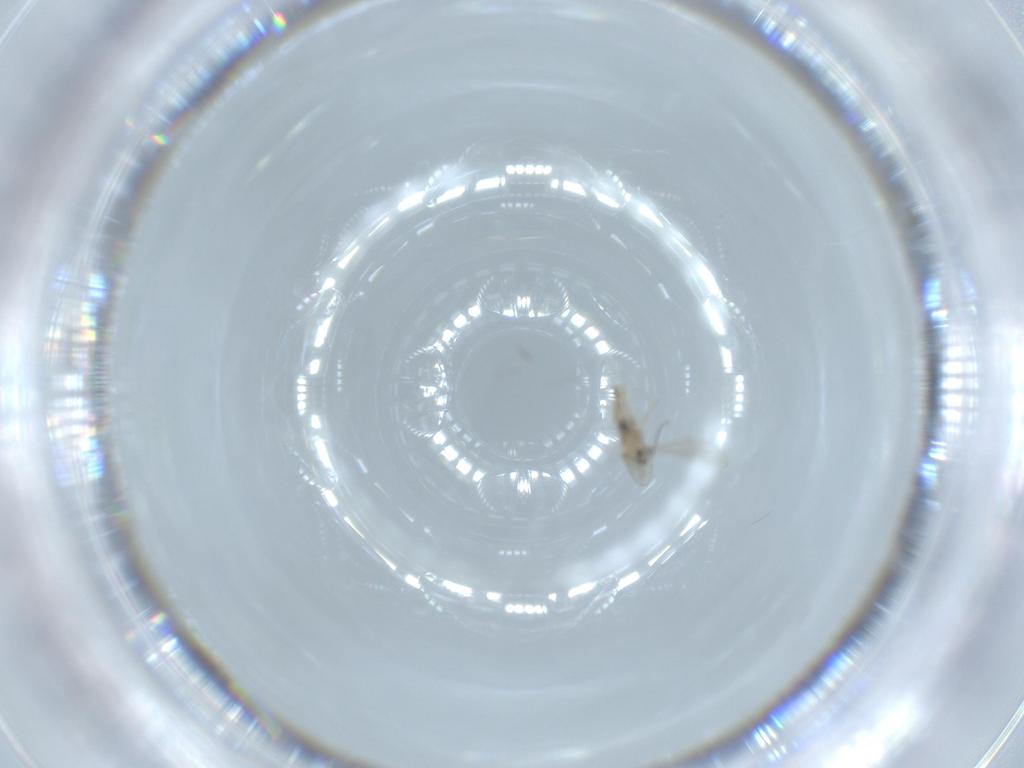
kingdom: Animalia
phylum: Arthropoda
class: Insecta
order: Diptera
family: Cecidomyiidae
